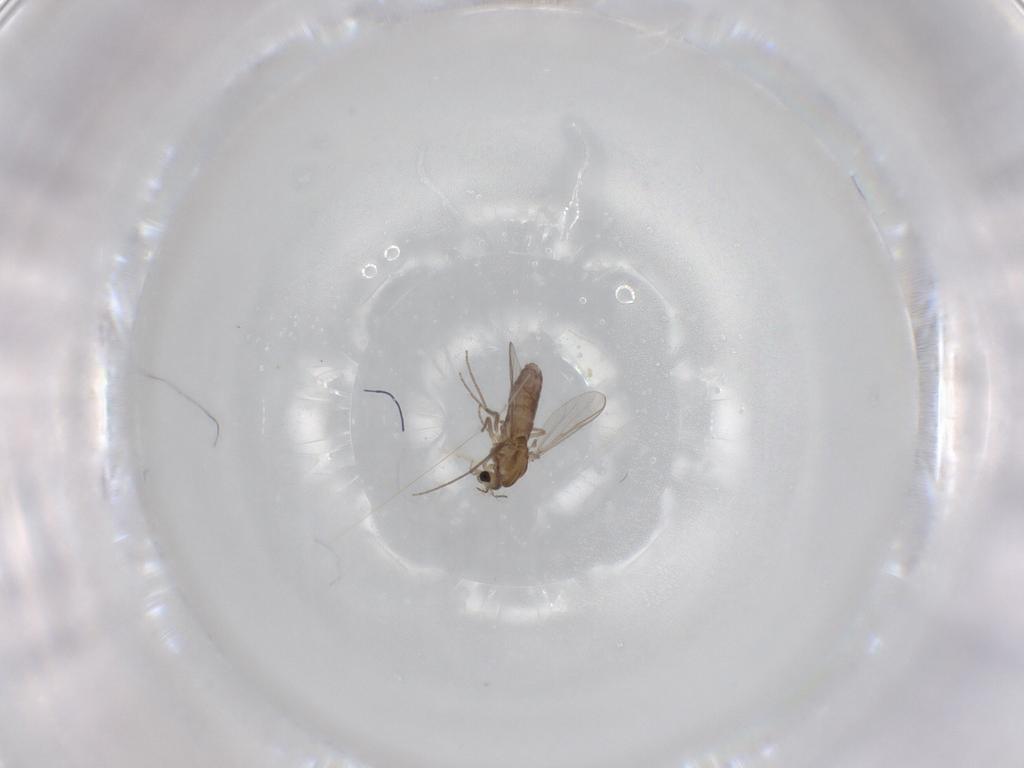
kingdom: Animalia
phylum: Arthropoda
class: Insecta
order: Diptera
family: Chironomidae
